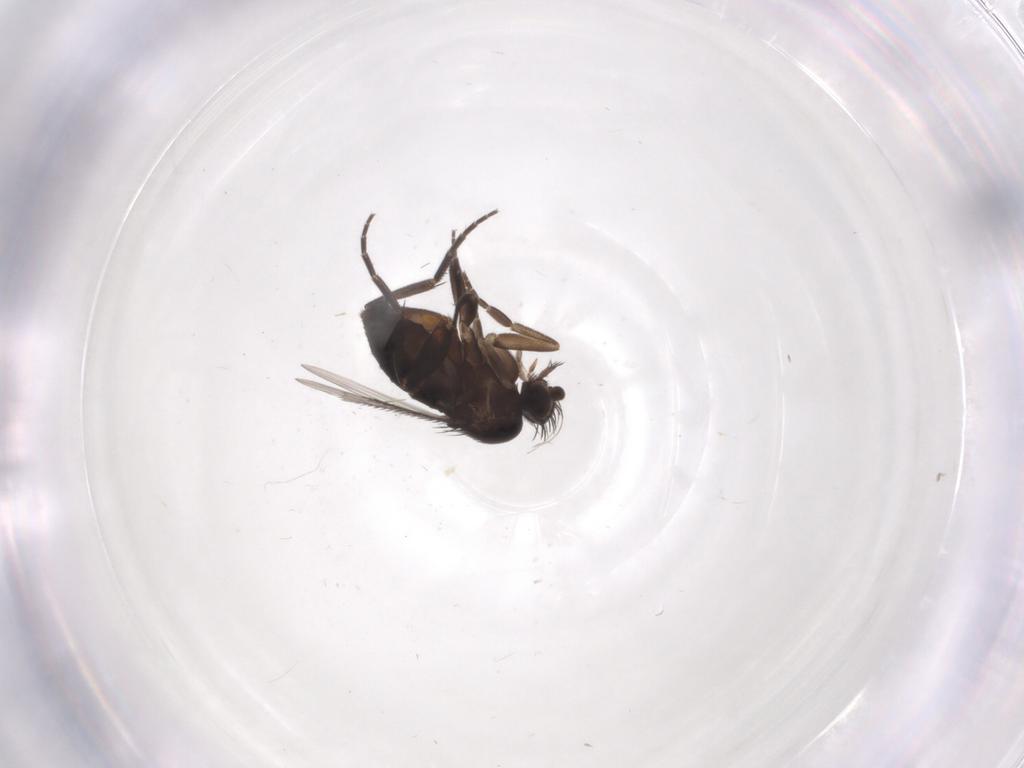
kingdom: Animalia
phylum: Arthropoda
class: Insecta
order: Diptera
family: Phoridae
